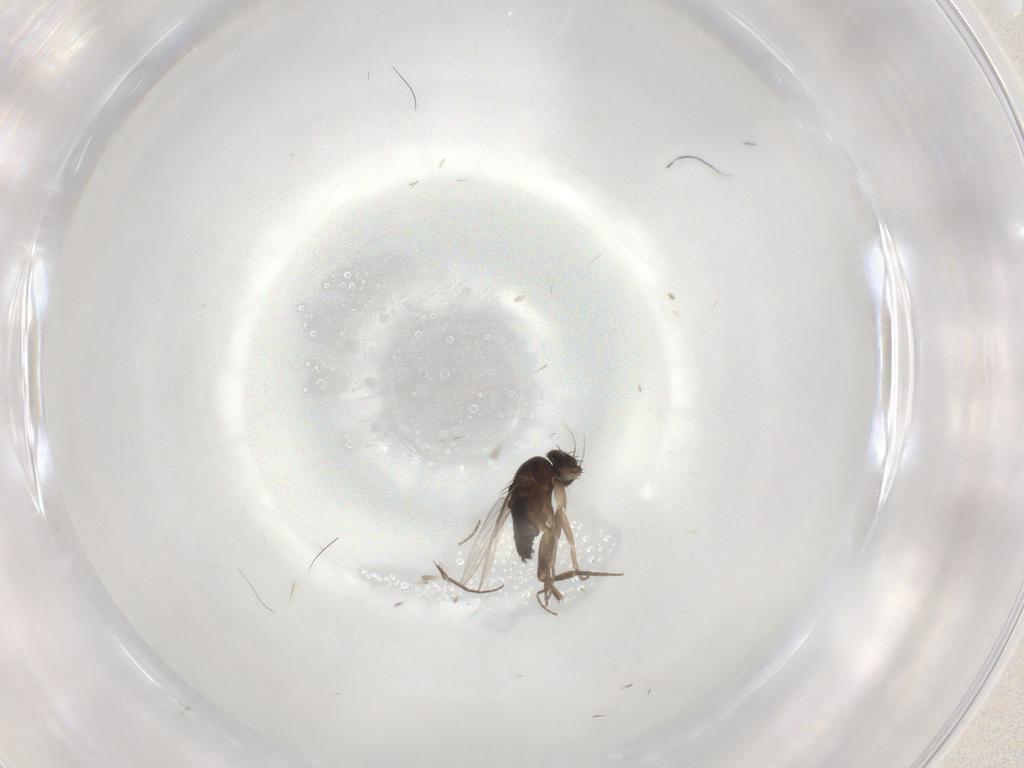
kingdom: Animalia
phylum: Arthropoda
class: Insecta
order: Diptera
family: Phoridae
